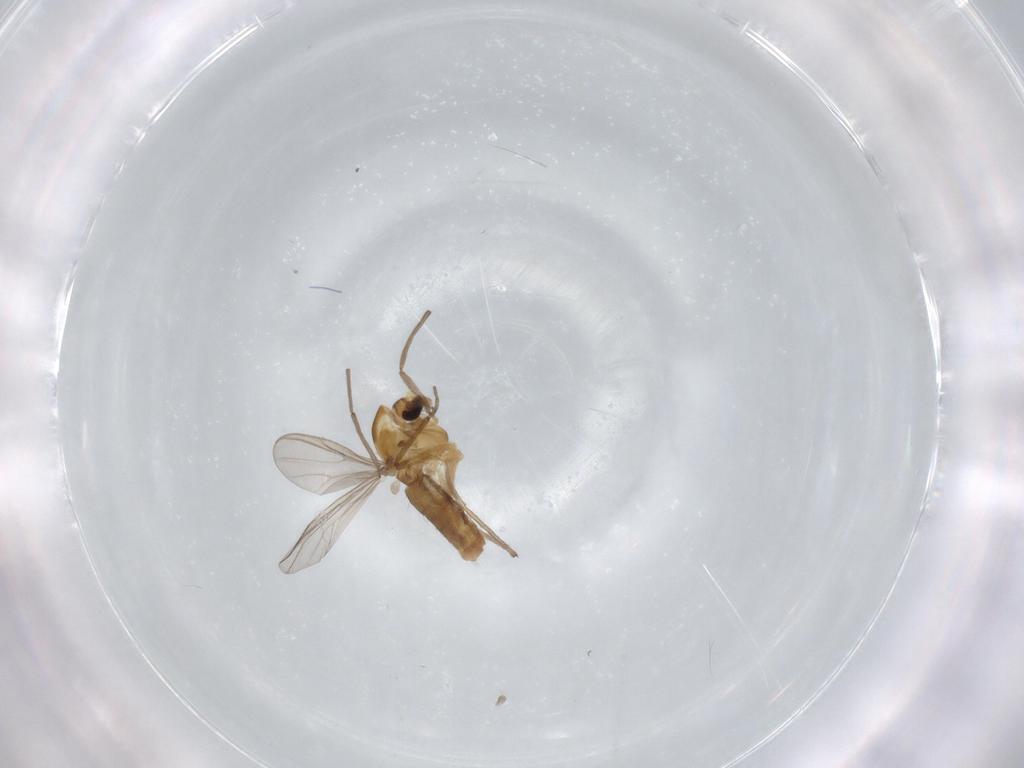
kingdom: Animalia
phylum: Arthropoda
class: Insecta
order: Diptera
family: Chironomidae
